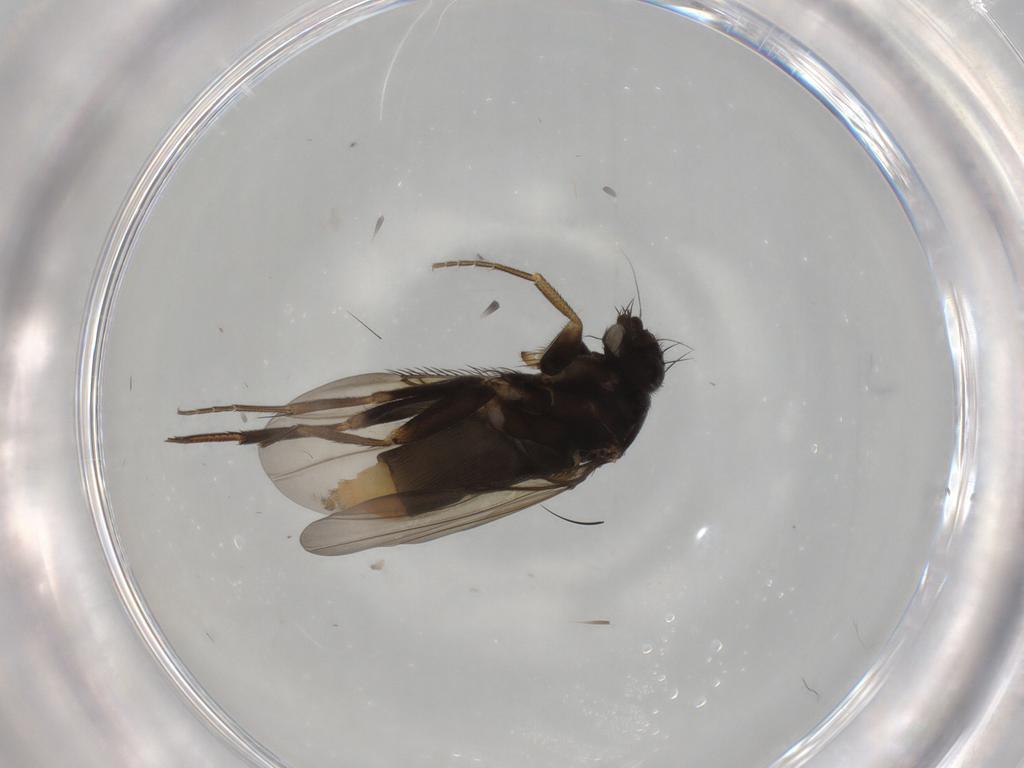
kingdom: Animalia
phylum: Arthropoda
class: Insecta
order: Diptera
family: Phoridae
